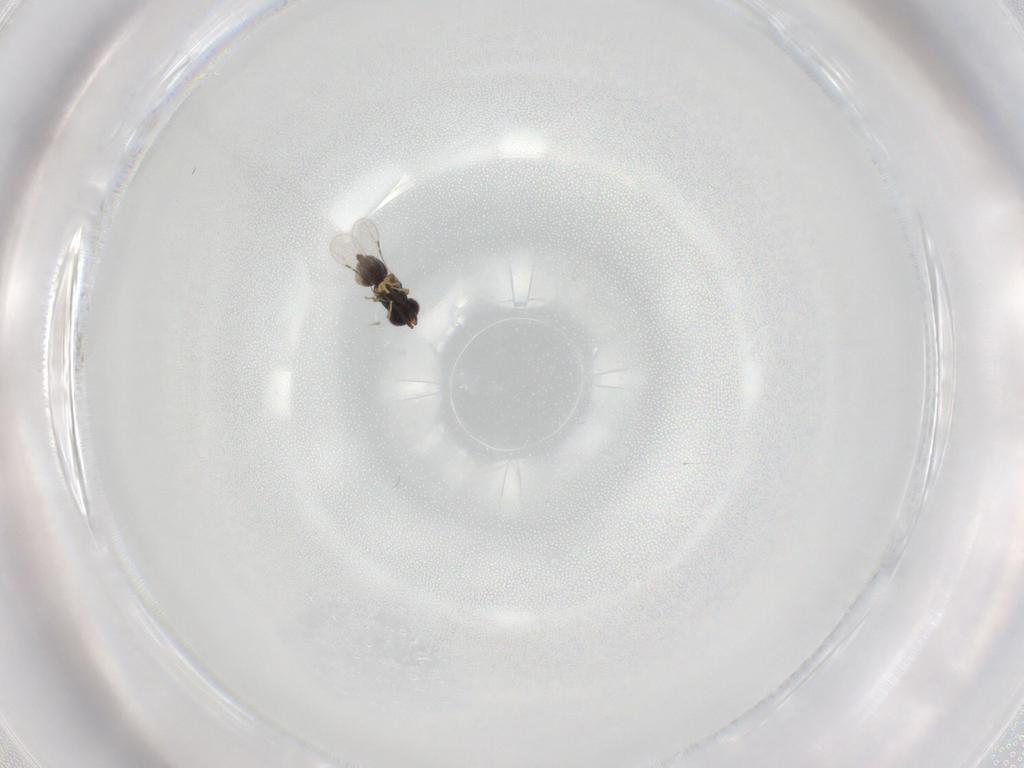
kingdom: Animalia
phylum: Arthropoda
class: Insecta
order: Hymenoptera
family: Ceraphronidae
